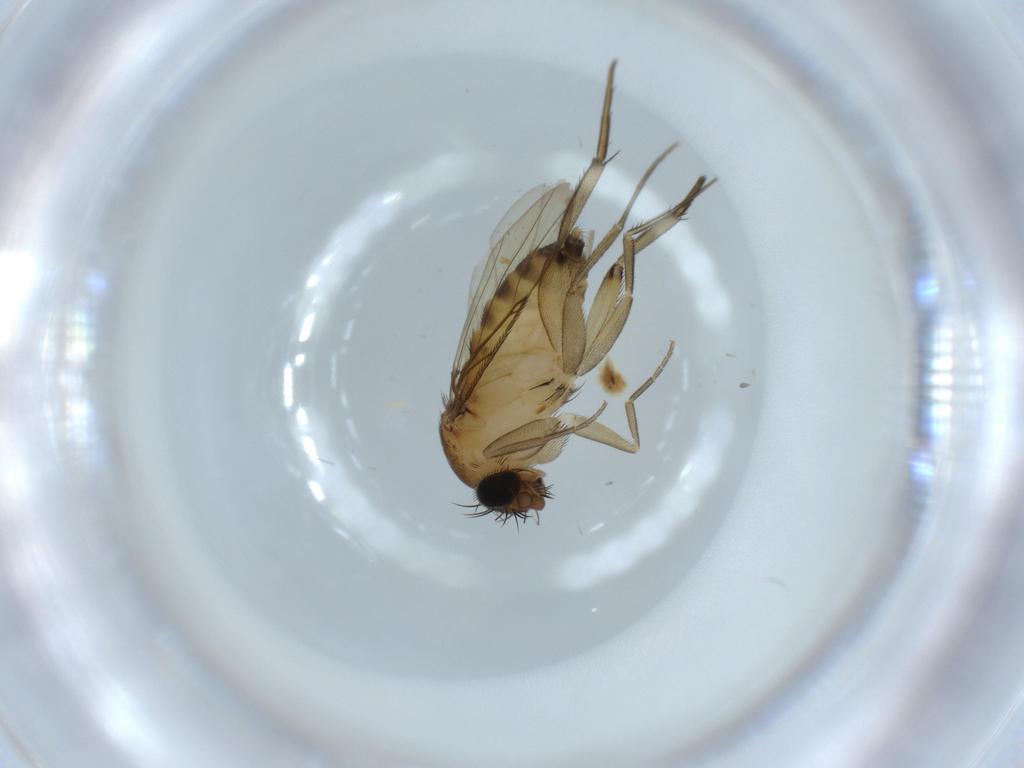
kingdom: Animalia
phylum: Arthropoda
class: Insecta
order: Diptera
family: Phoridae
